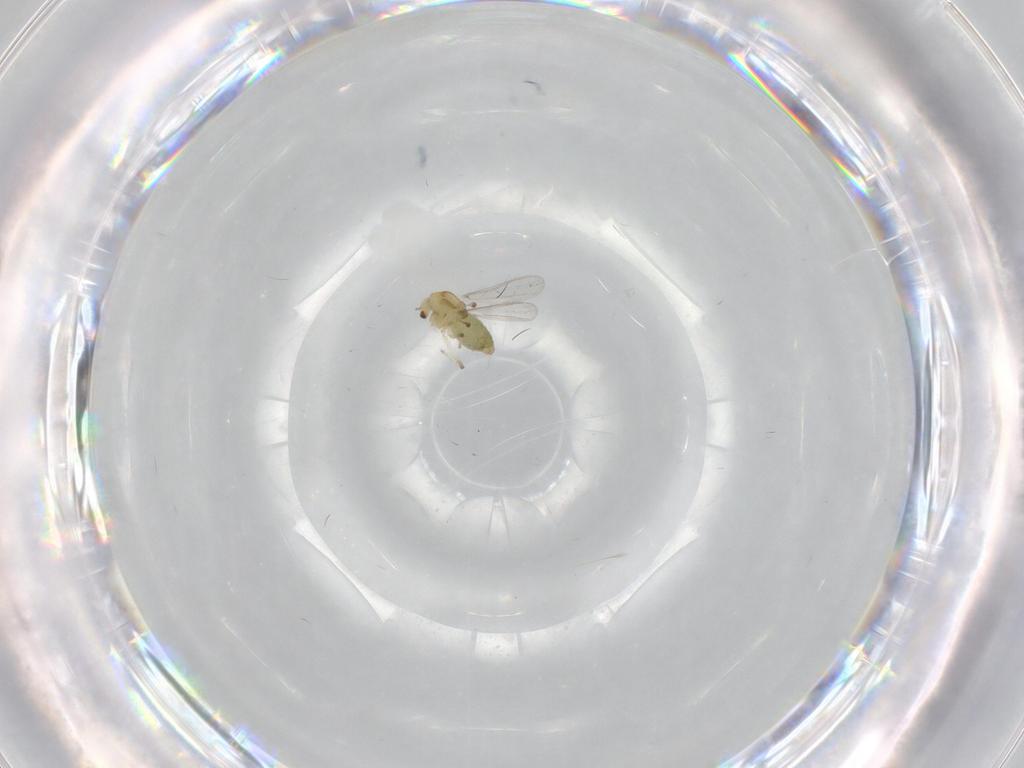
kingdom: Animalia
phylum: Arthropoda
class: Insecta
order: Diptera
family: Chironomidae
